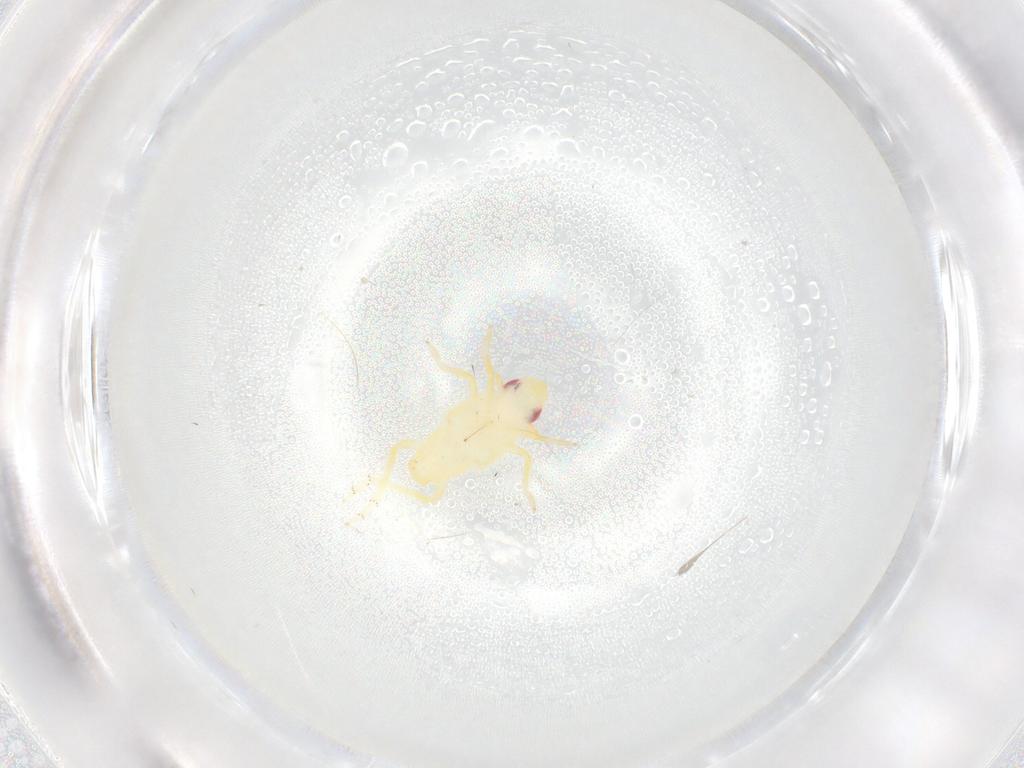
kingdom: Animalia
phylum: Arthropoda
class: Insecta
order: Hemiptera
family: Fulgoroidea_incertae_sedis
